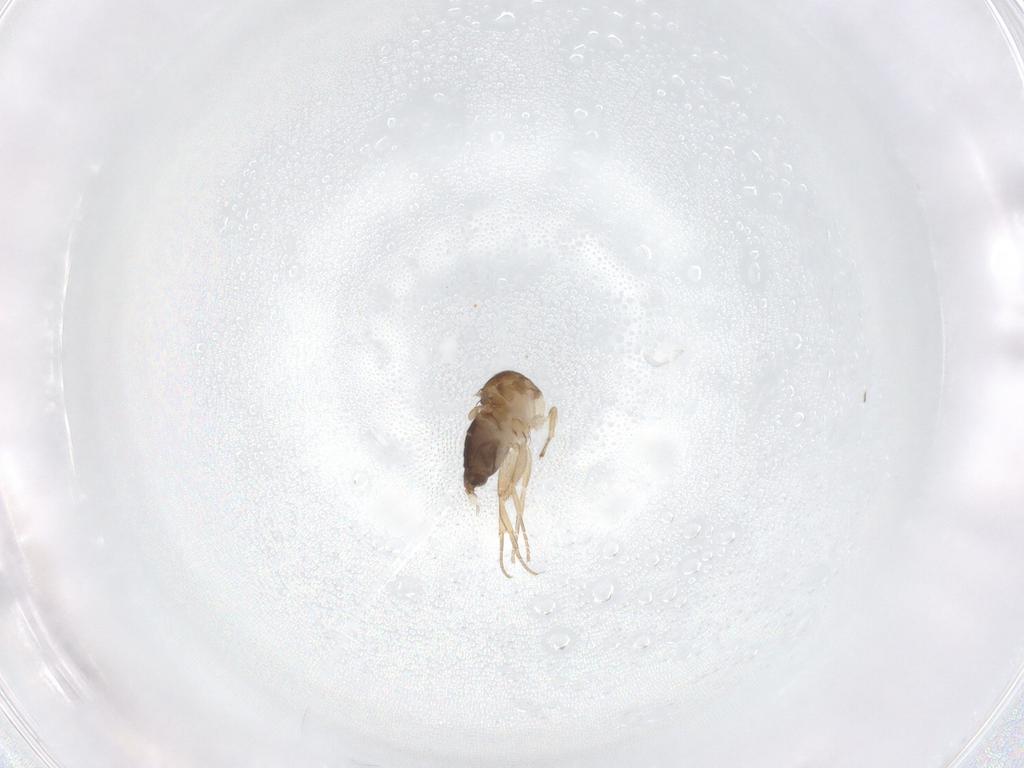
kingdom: Animalia
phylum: Arthropoda
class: Insecta
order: Diptera
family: Phoridae
